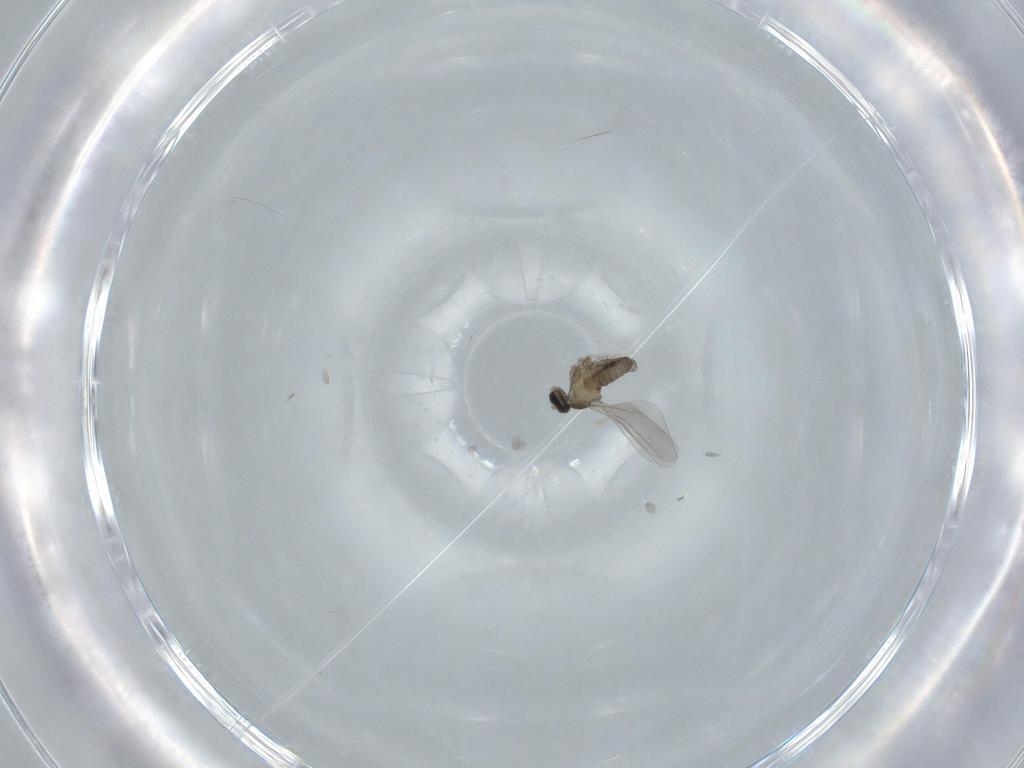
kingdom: Animalia
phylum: Arthropoda
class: Insecta
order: Diptera
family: Cecidomyiidae
